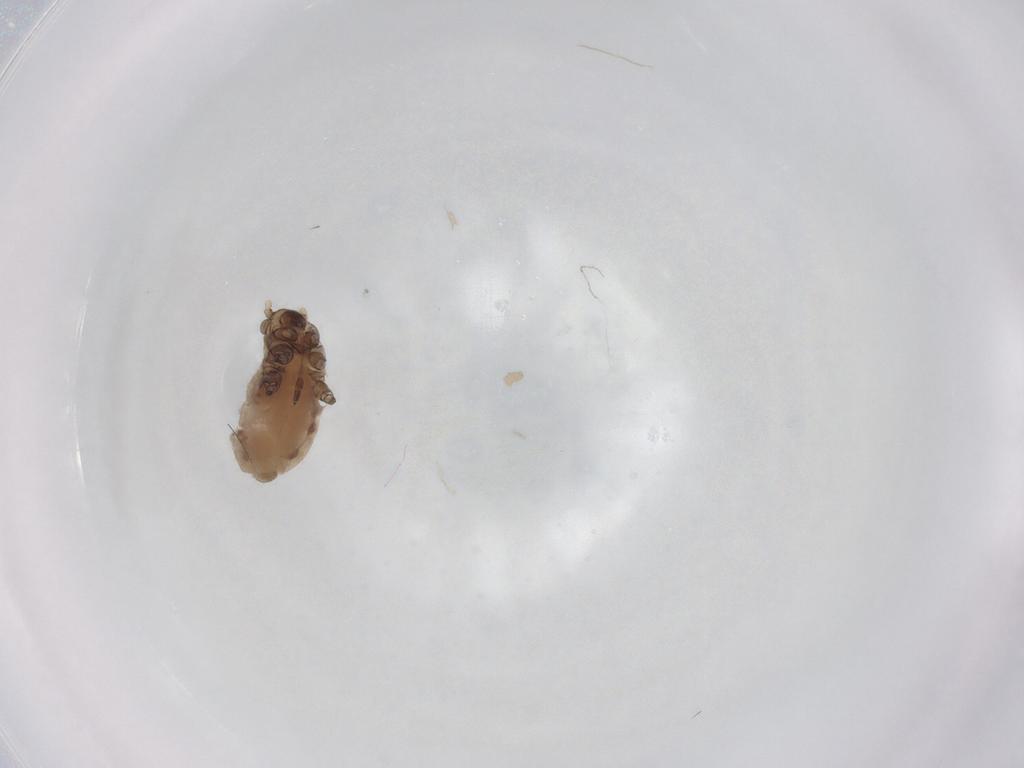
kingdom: Animalia
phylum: Arthropoda
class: Insecta
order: Hemiptera
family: Aphididae
